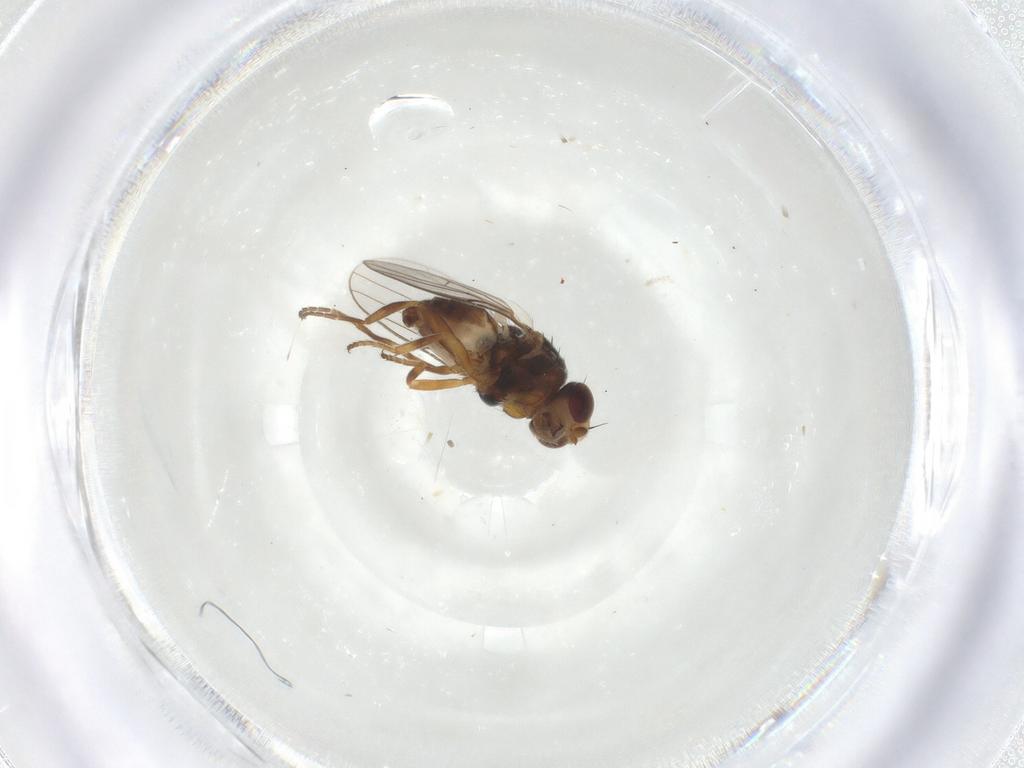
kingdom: Animalia
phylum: Arthropoda
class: Insecta
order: Diptera
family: Chloropidae
